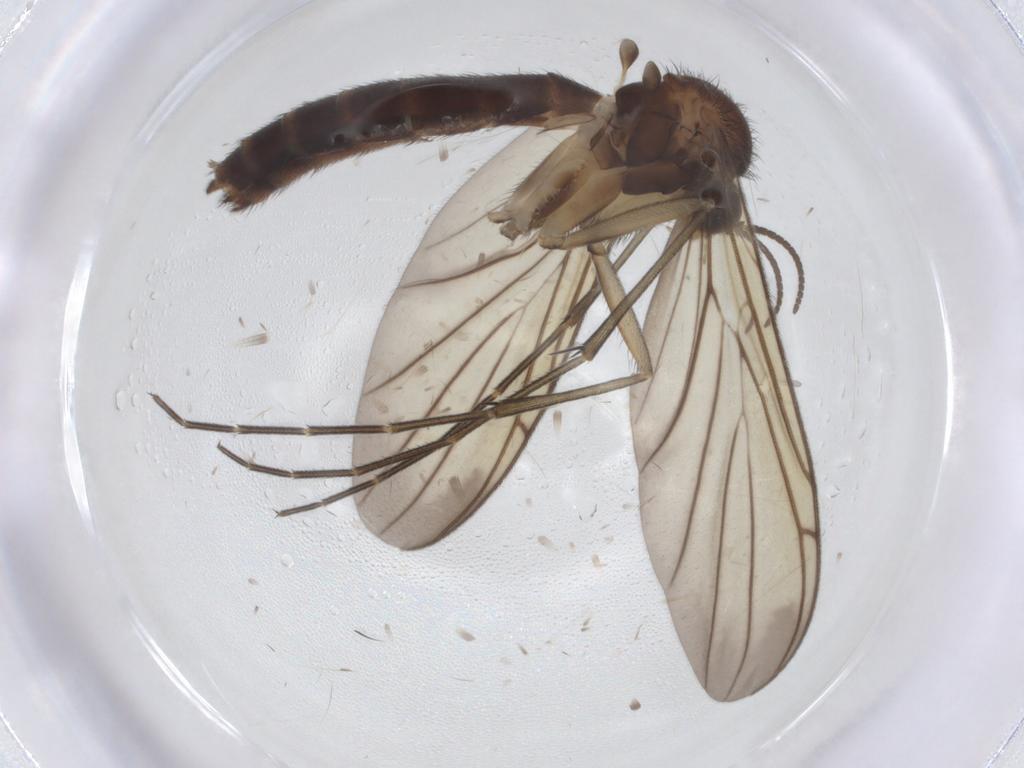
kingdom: Animalia
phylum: Arthropoda
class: Insecta
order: Diptera
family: Keroplatidae
